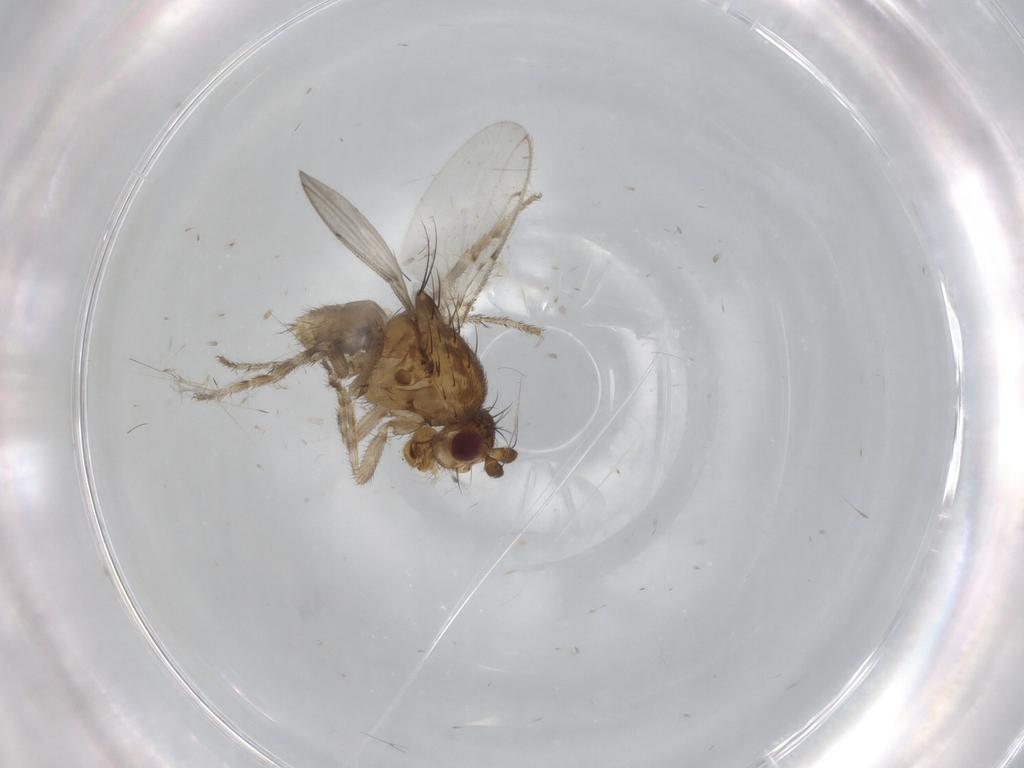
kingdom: Animalia
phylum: Arthropoda
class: Insecta
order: Diptera
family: Sphaeroceridae
